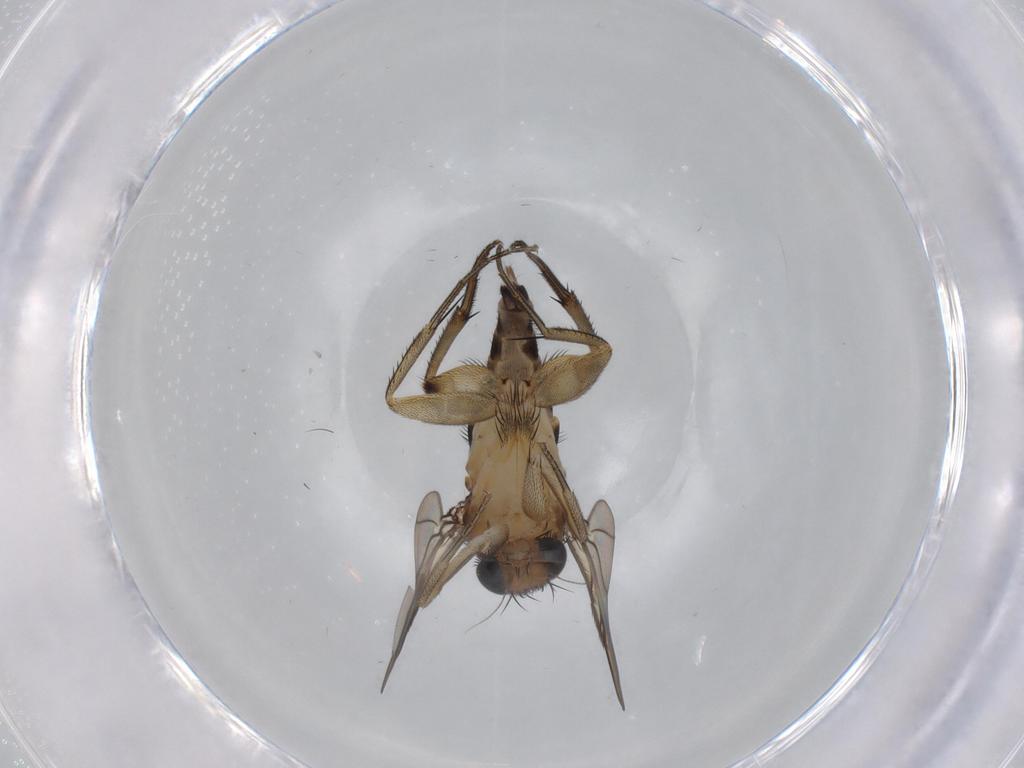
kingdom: Animalia
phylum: Arthropoda
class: Insecta
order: Diptera
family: Phoridae
